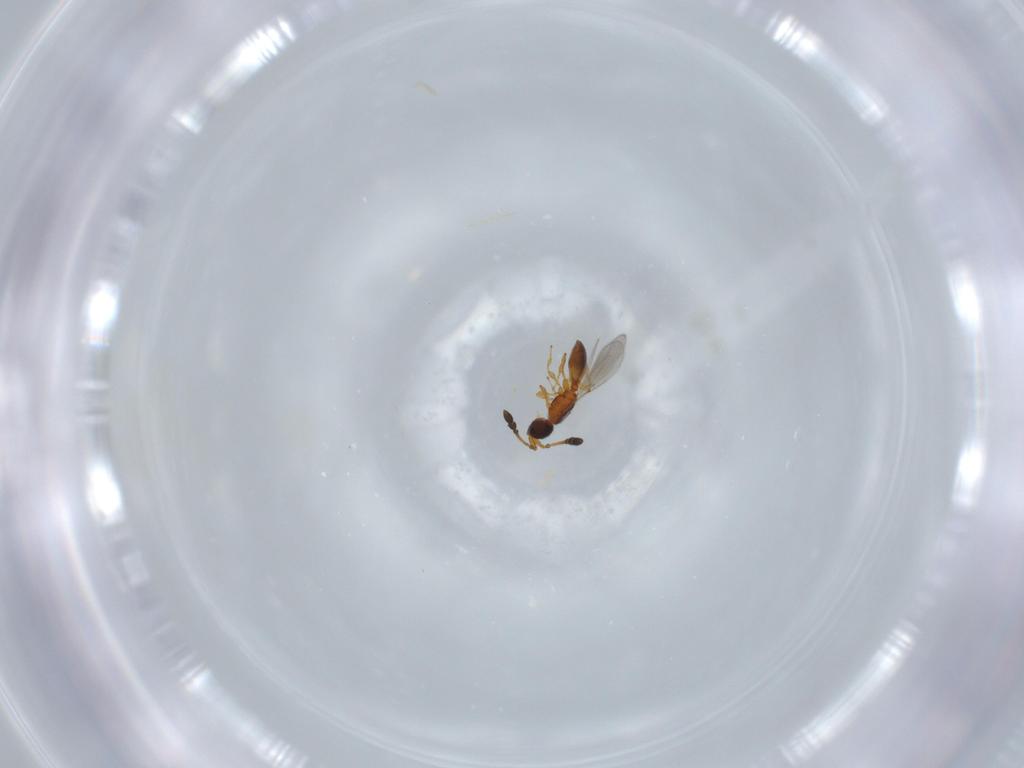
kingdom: Animalia
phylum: Arthropoda
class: Insecta
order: Hymenoptera
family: Diapriidae
